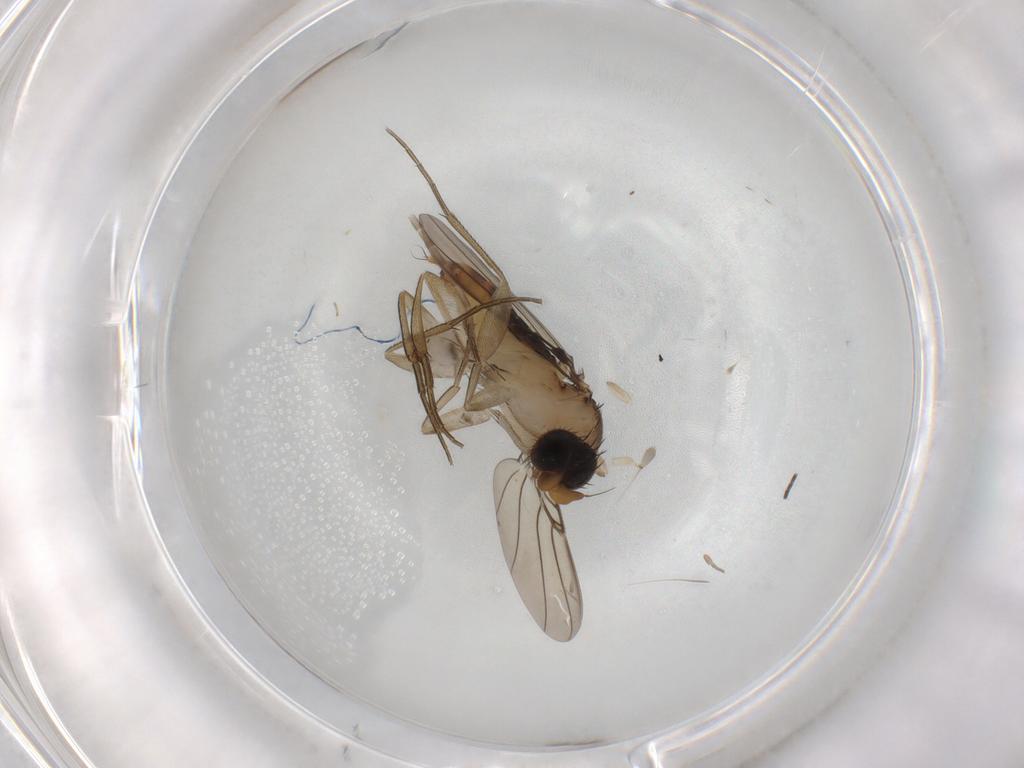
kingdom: Animalia
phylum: Arthropoda
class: Insecta
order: Diptera
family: Phoridae
